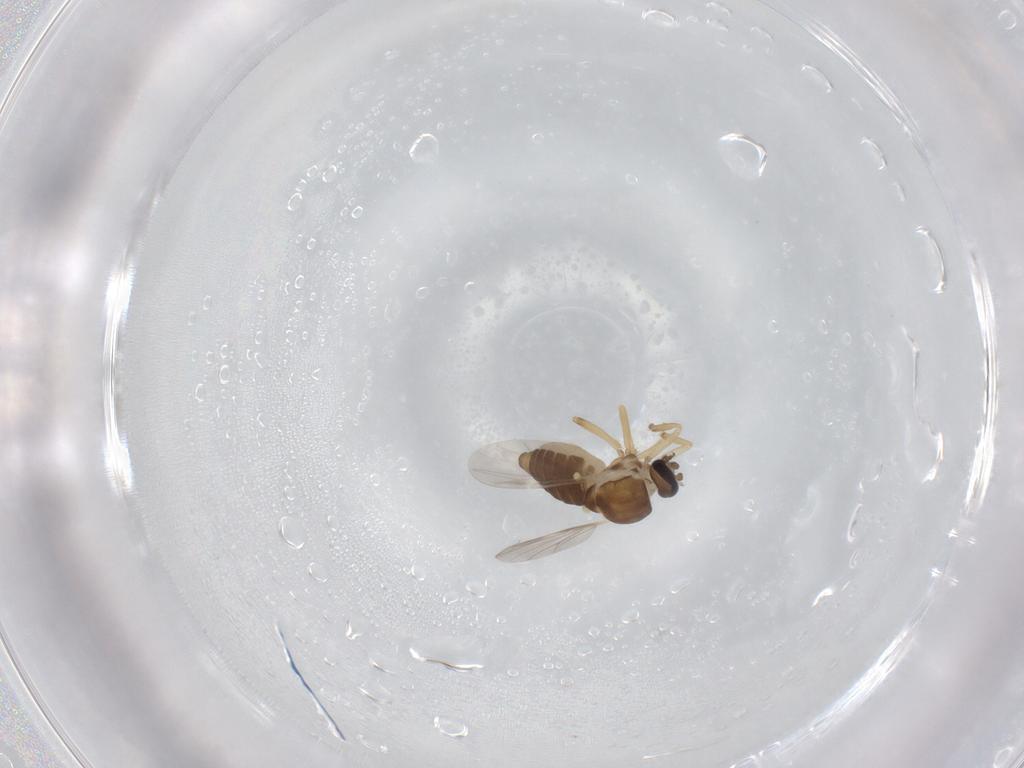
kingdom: Animalia
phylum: Arthropoda
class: Insecta
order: Diptera
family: Ceratopogonidae
